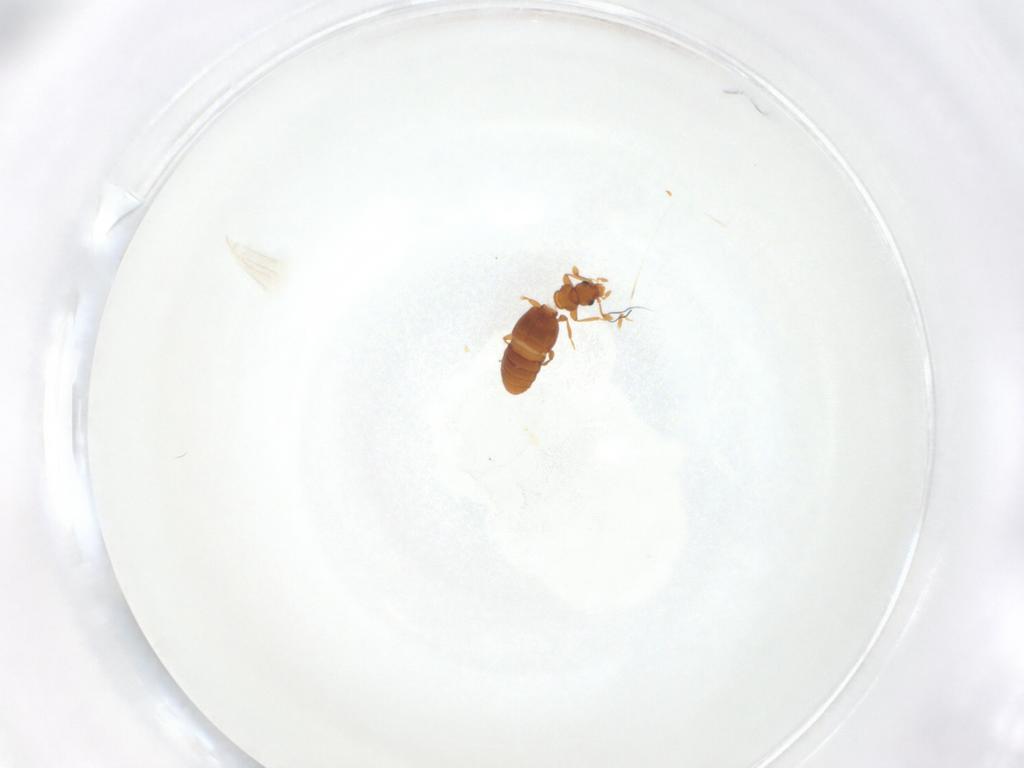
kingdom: Animalia
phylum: Arthropoda
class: Insecta
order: Coleoptera
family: Staphylinidae
